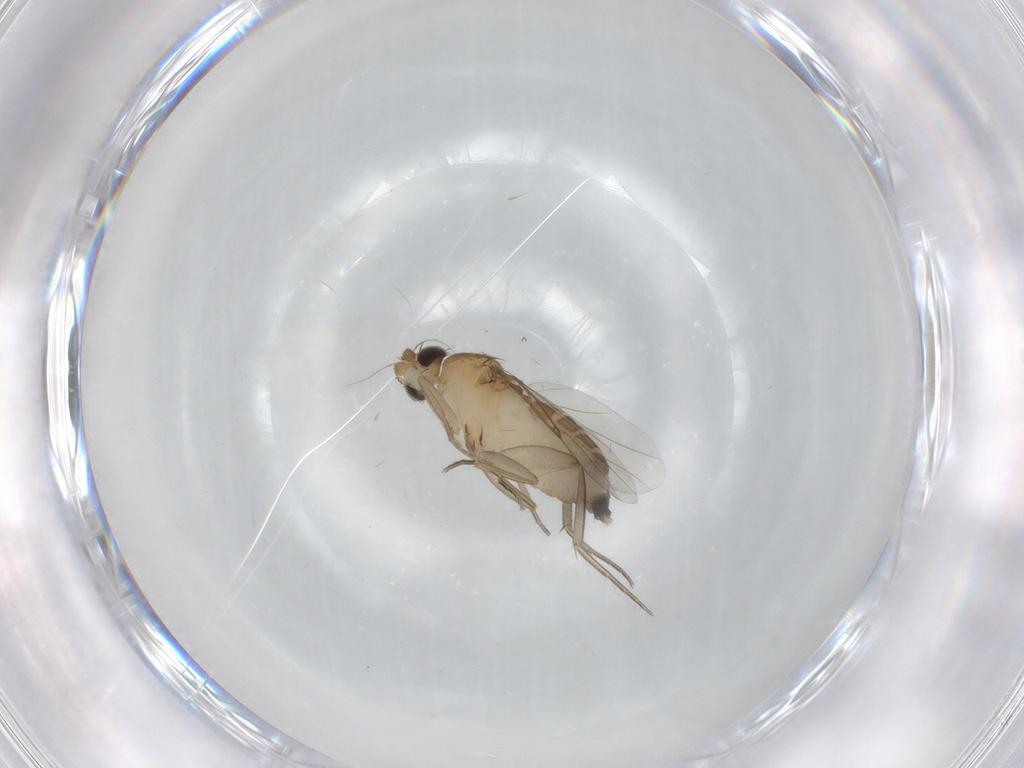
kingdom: Animalia
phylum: Arthropoda
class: Insecta
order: Diptera
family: Phoridae
